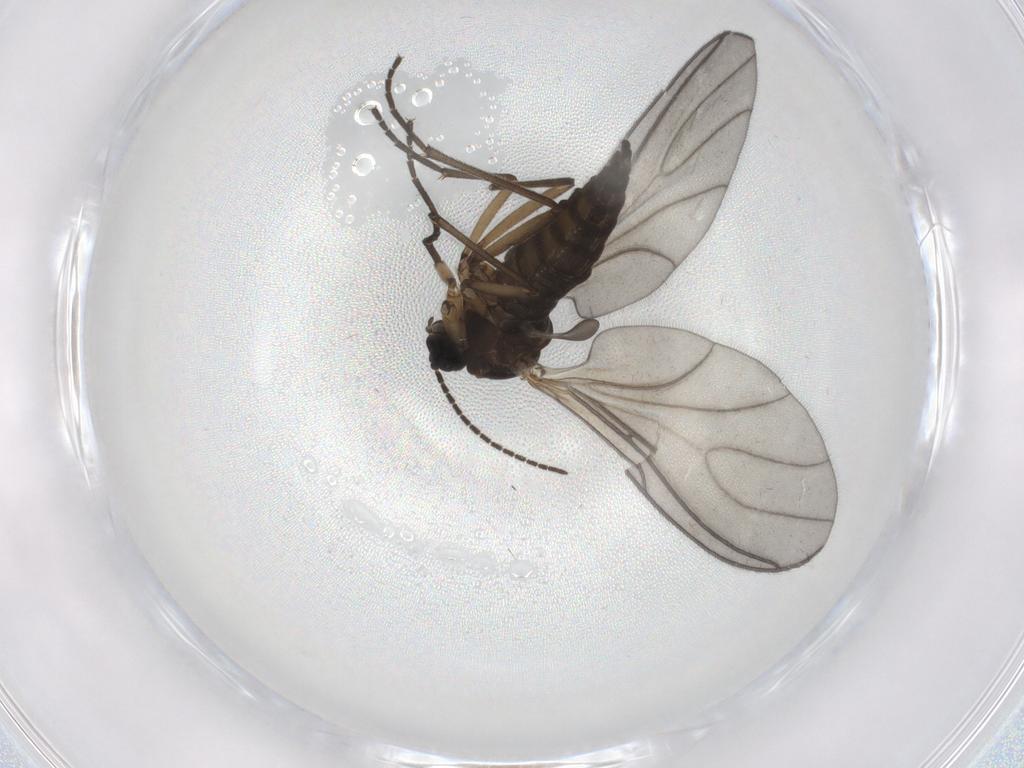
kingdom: Animalia
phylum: Arthropoda
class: Insecta
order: Diptera
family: Sciaridae
